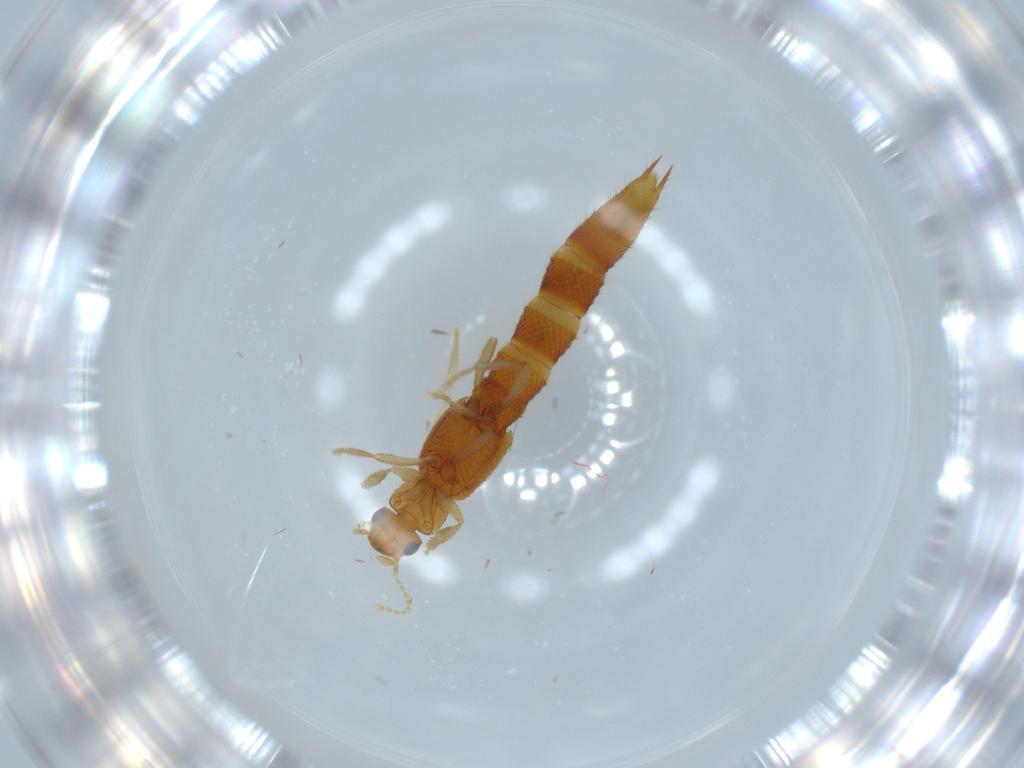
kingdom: Animalia
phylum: Arthropoda
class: Insecta
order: Coleoptera
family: Staphylinidae
